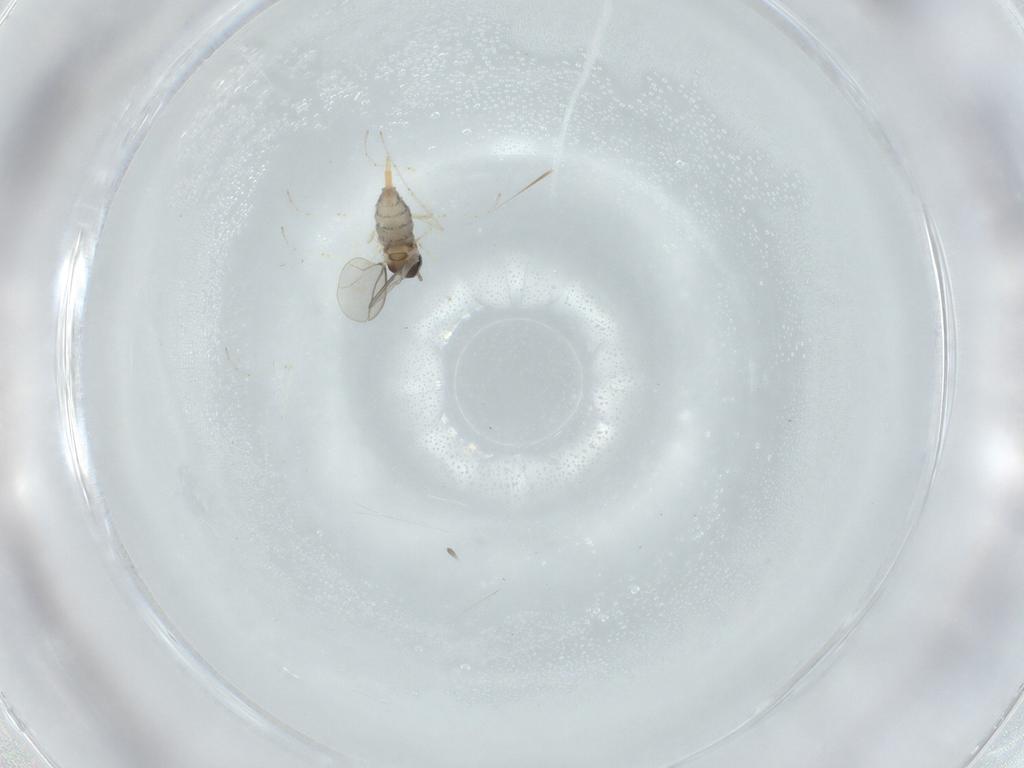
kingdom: Animalia
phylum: Arthropoda
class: Insecta
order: Diptera
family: Cecidomyiidae
